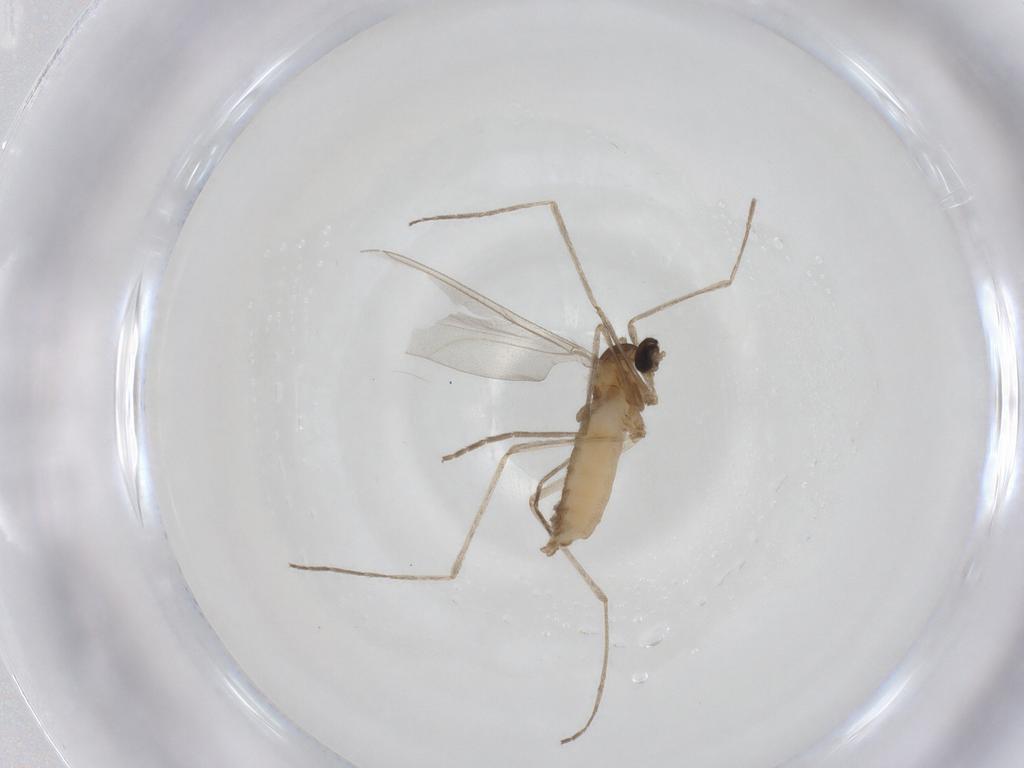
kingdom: Animalia
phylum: Arthropoda
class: Insecta
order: Diptera
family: Cecidomyiidae
